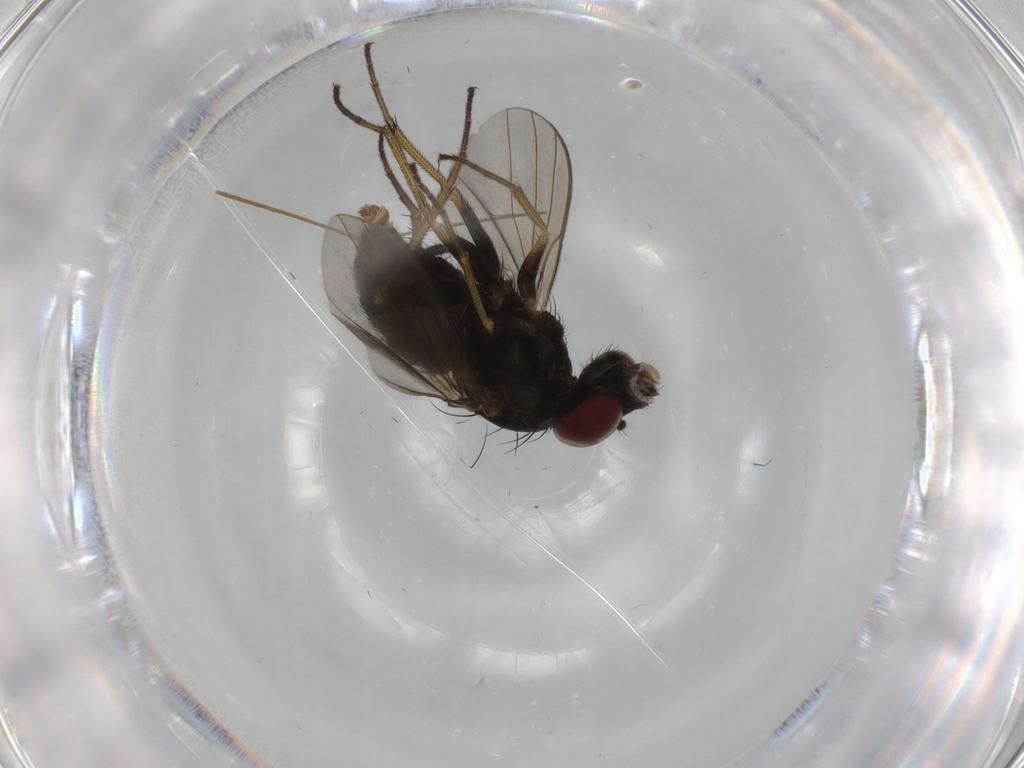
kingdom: Animalia
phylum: Arthropoda
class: Insecta
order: Diptera
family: Dolichopodidae
